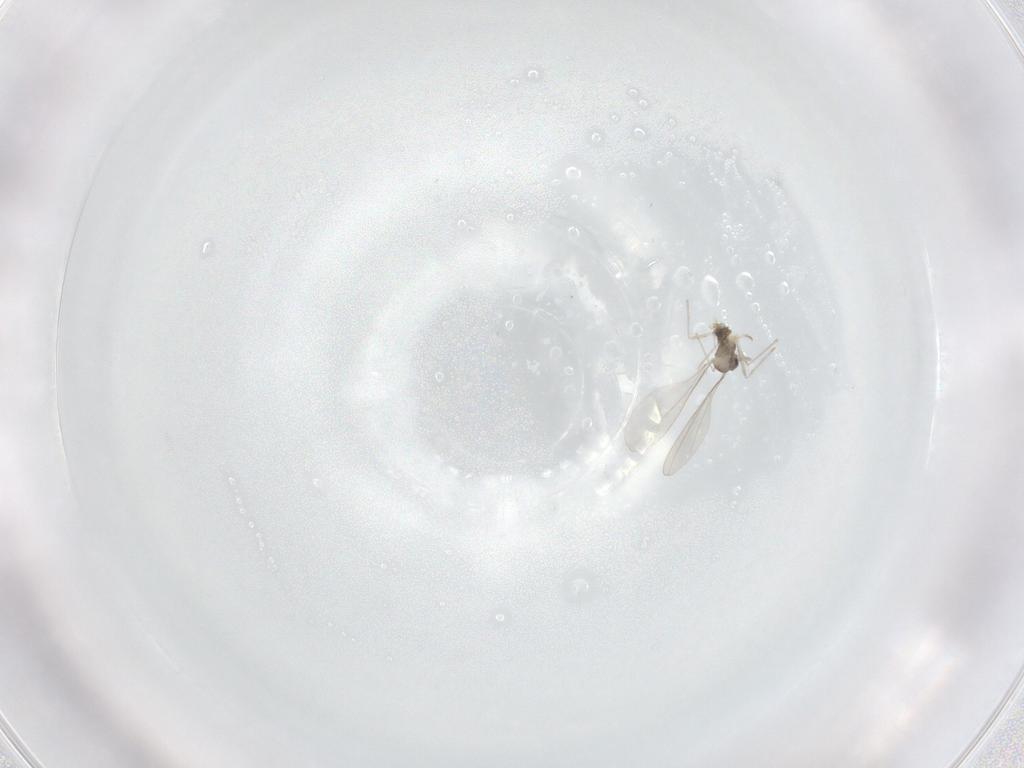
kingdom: Animalia
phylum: Arthropoda
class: Insecta
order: Diptera
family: Cecidomyiidae
